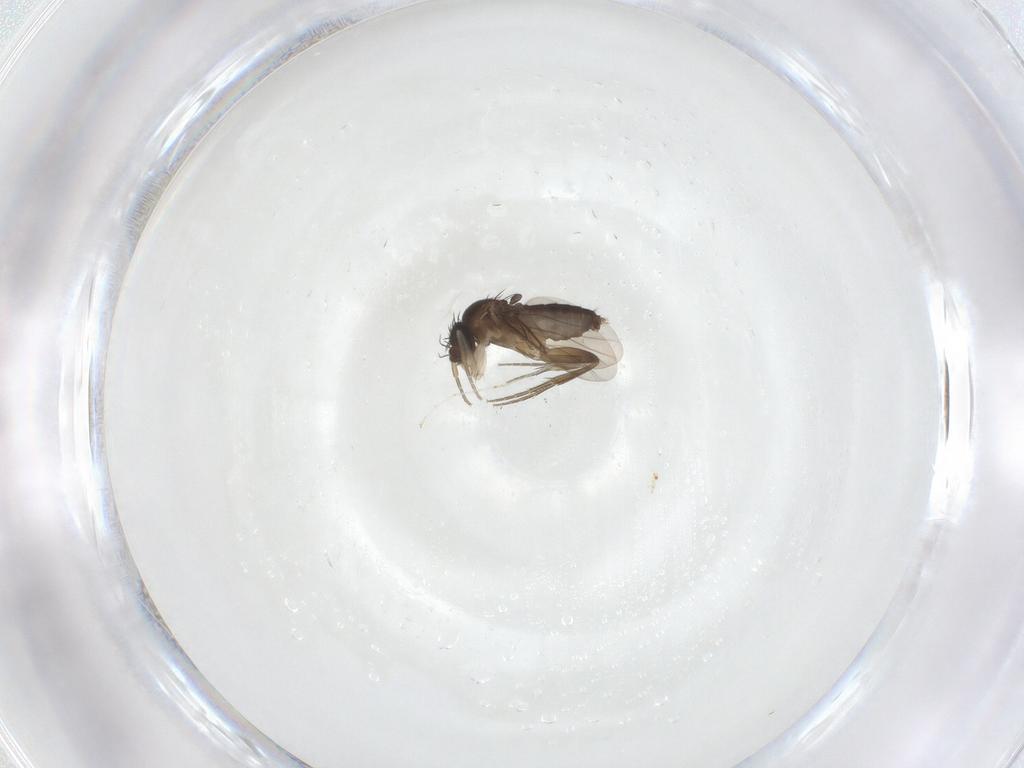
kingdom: Animalia
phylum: Arthropoda
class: Insecta
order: Diptera
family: Phoridae
